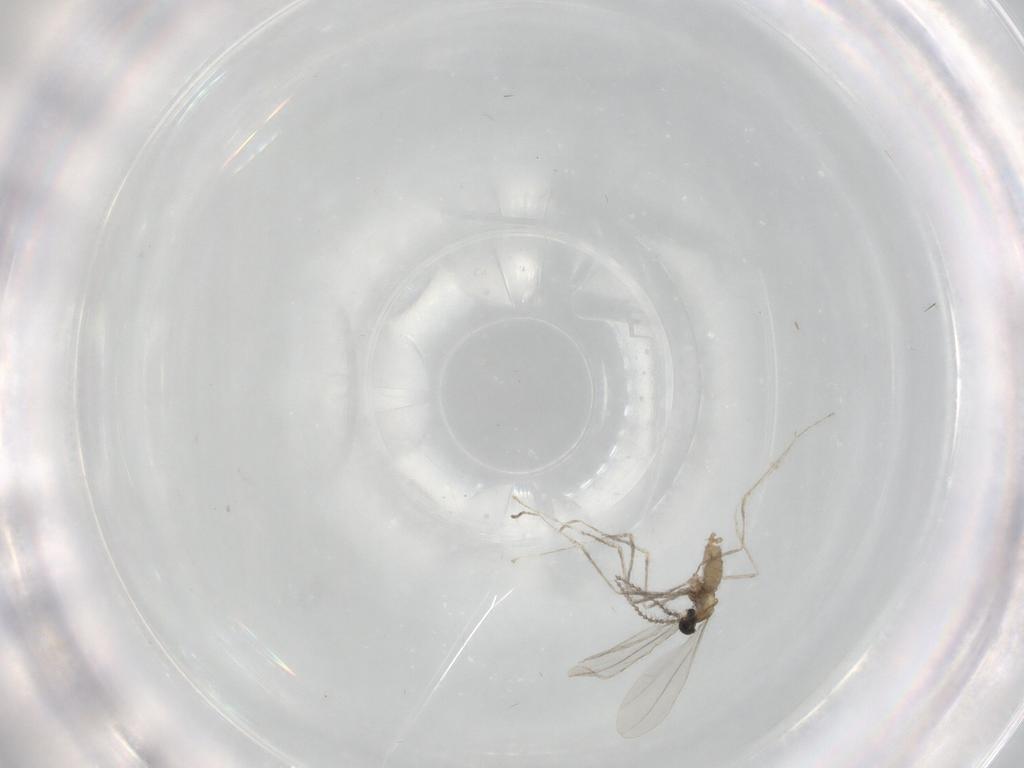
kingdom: Animalia
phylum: Arthropoda
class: Insecta
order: Diptera
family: Cecidomyiidae
